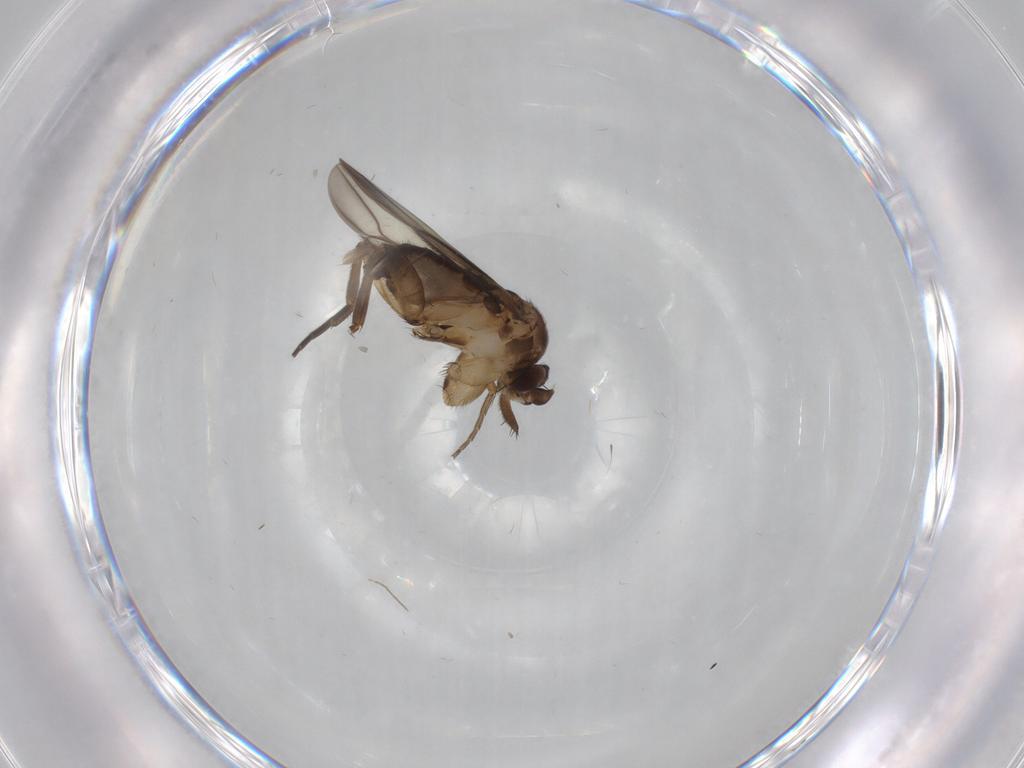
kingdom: Animalia
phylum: Arthropoda
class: Insecta
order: Diptera
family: Phoridae
